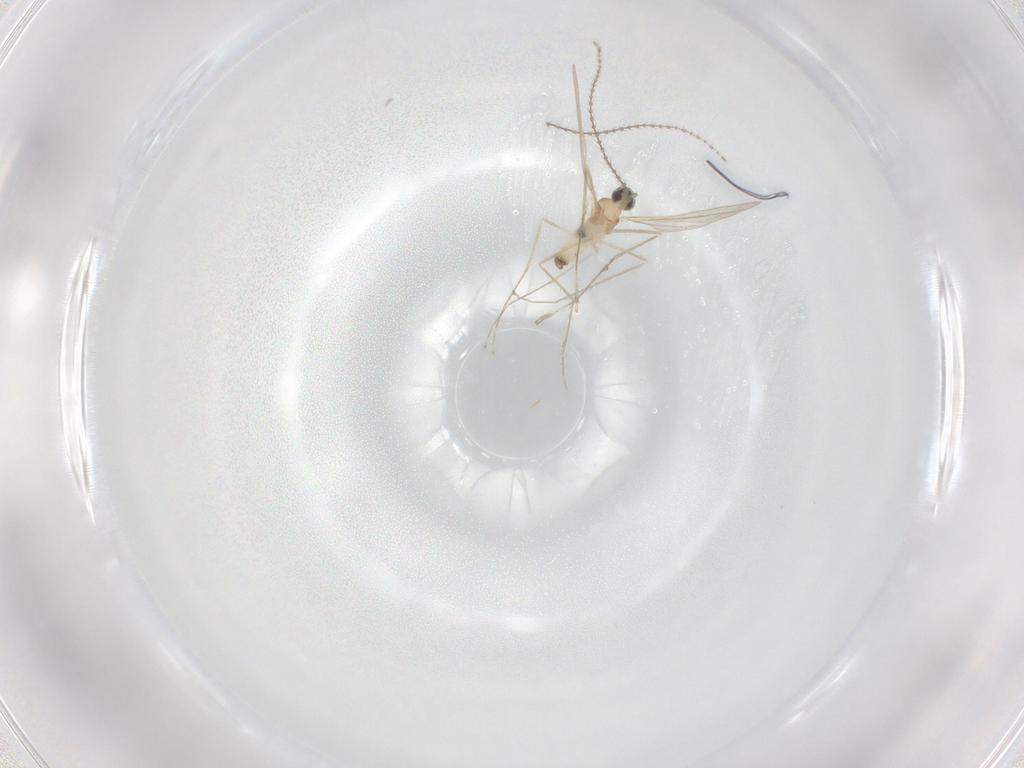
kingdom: Animalia
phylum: Arthropoda
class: Insecta
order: Diptera
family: Cecidomyiidae
